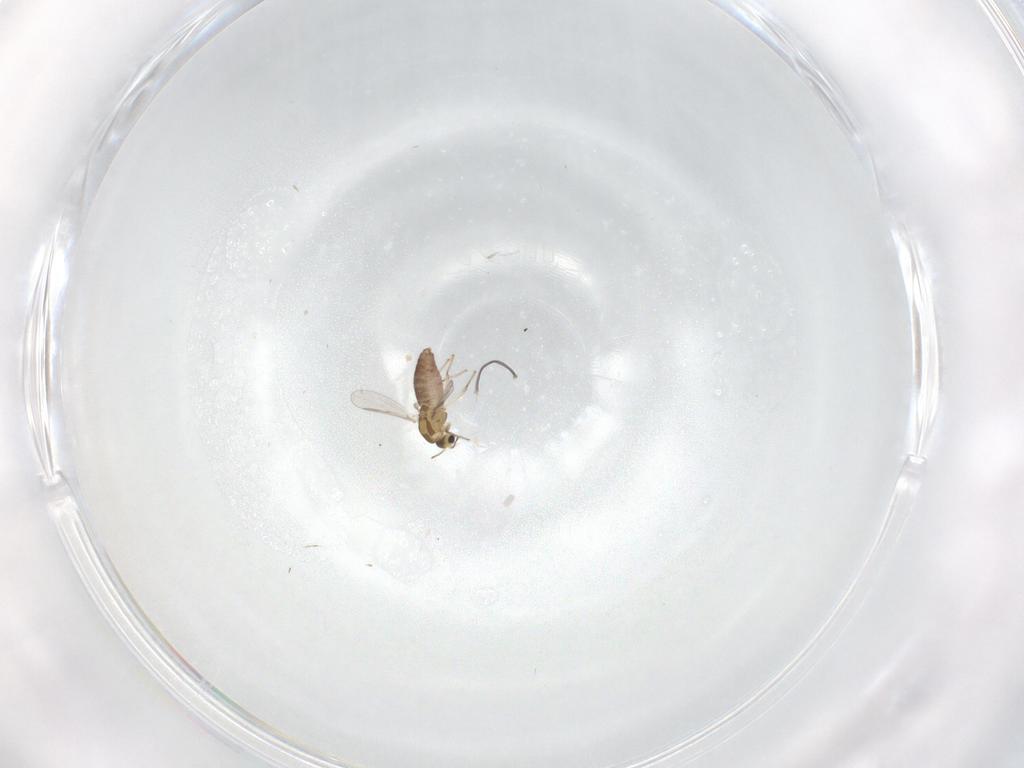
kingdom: Animalia
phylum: Arthropoda
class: Insecta
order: Diptera
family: Chironomidae
